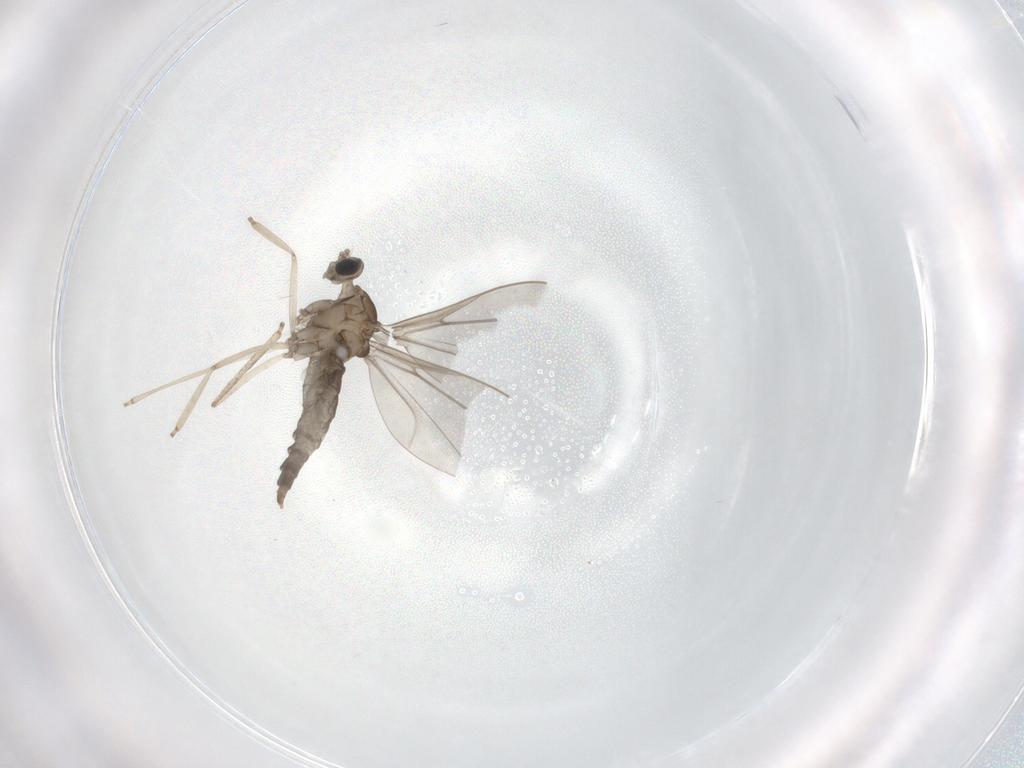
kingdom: Animalia
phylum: Arthropoda
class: Insecta
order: Diptera
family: Cecidomyiidae
